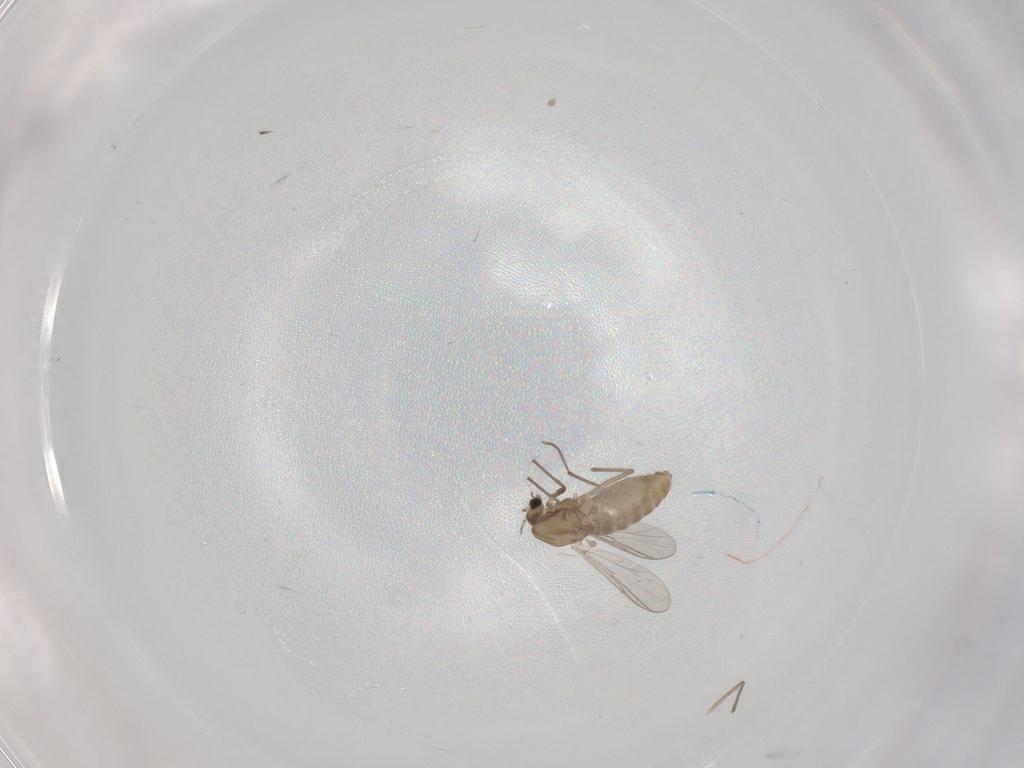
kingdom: Animalia
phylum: Arthropoda
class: Insecta
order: Diptera
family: Chironomidae
